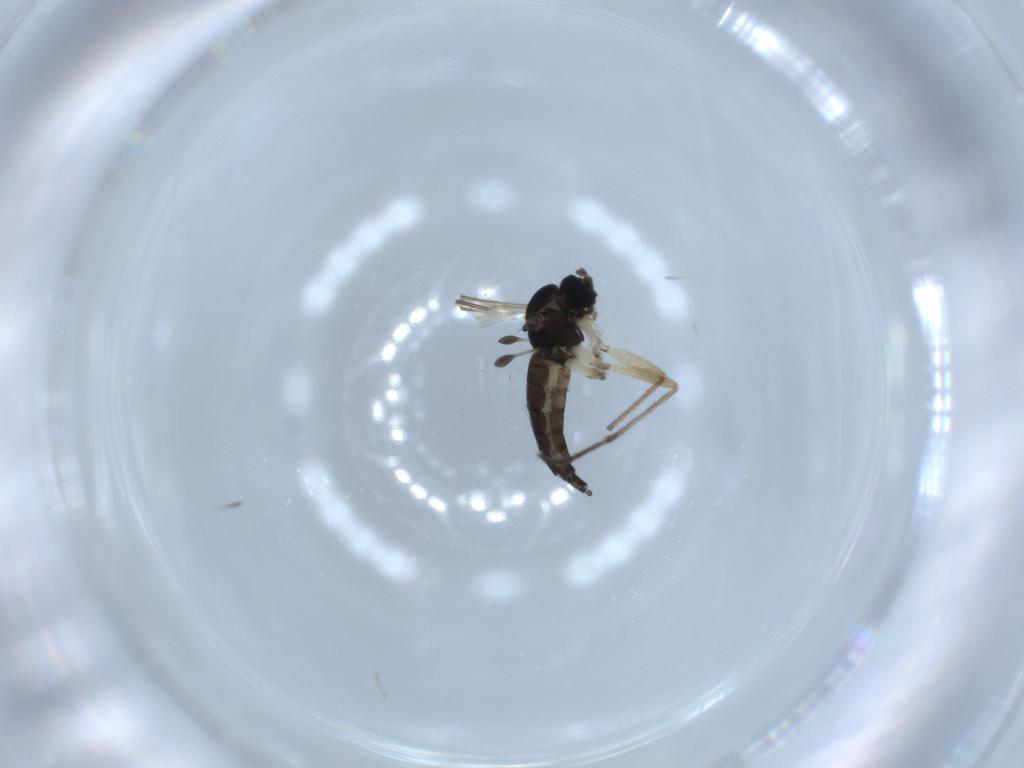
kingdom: Animalia
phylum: Arthropoda
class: Insecta
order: Diptera
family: Sciaridae
